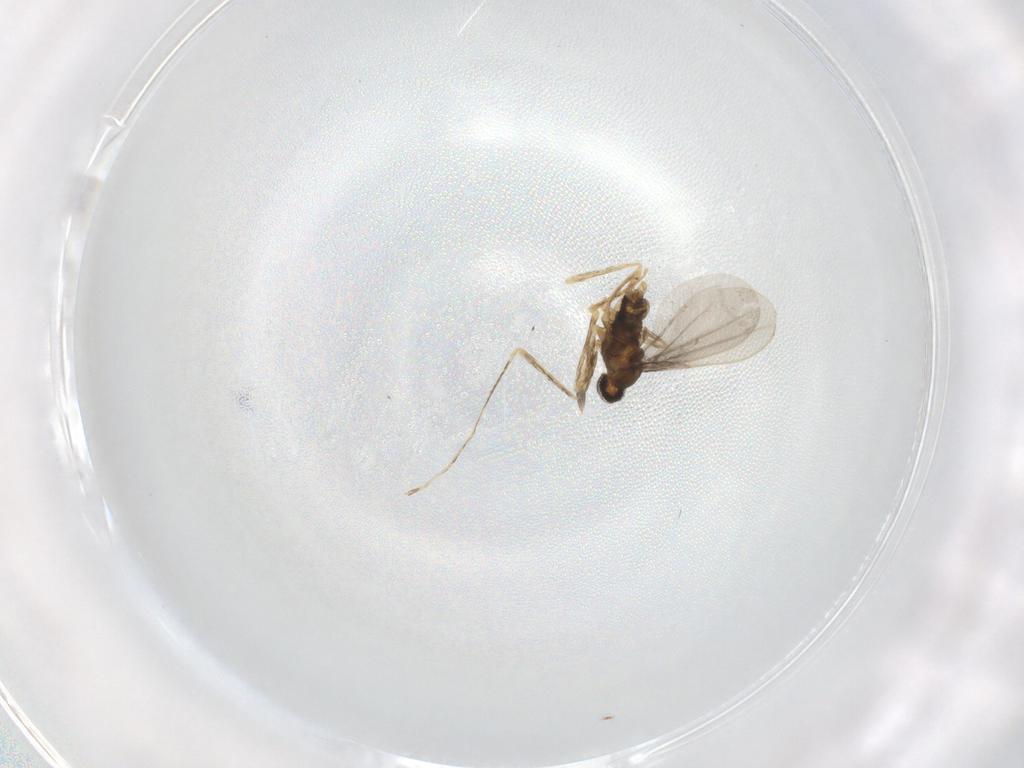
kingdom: Animalia
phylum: Arthropoda
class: Insecta
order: Diptera
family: Cecidomyiidae
